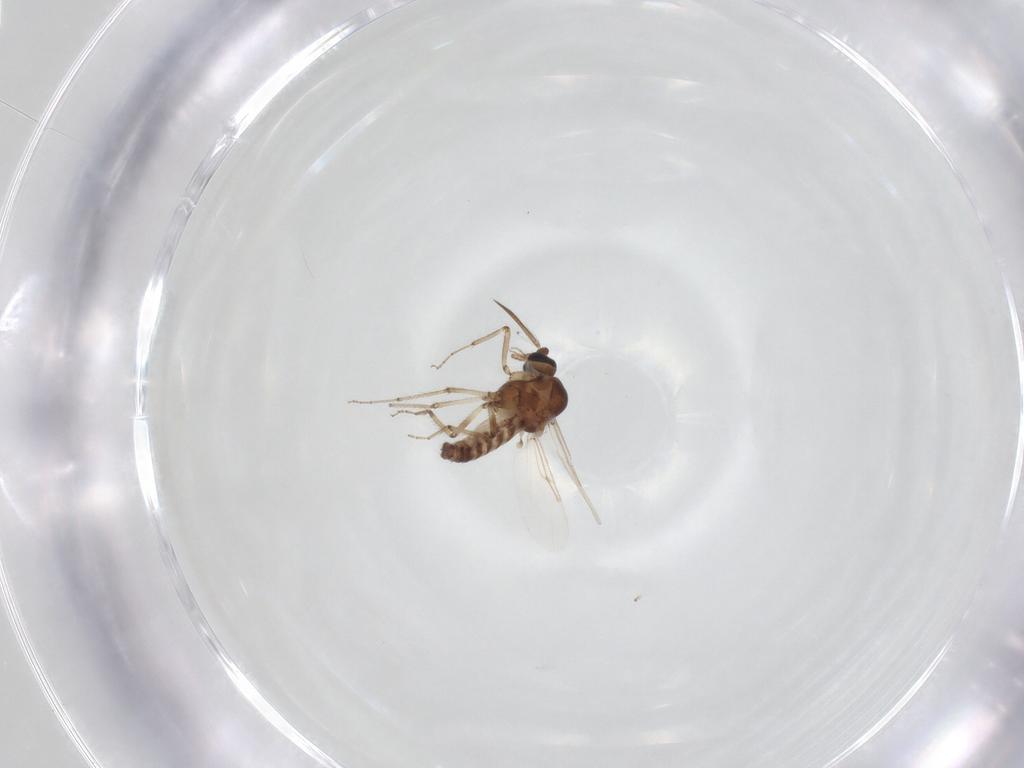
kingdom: Animalia
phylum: Arthropoda
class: Insecta
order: Diptera
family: Ceratopogonidae
